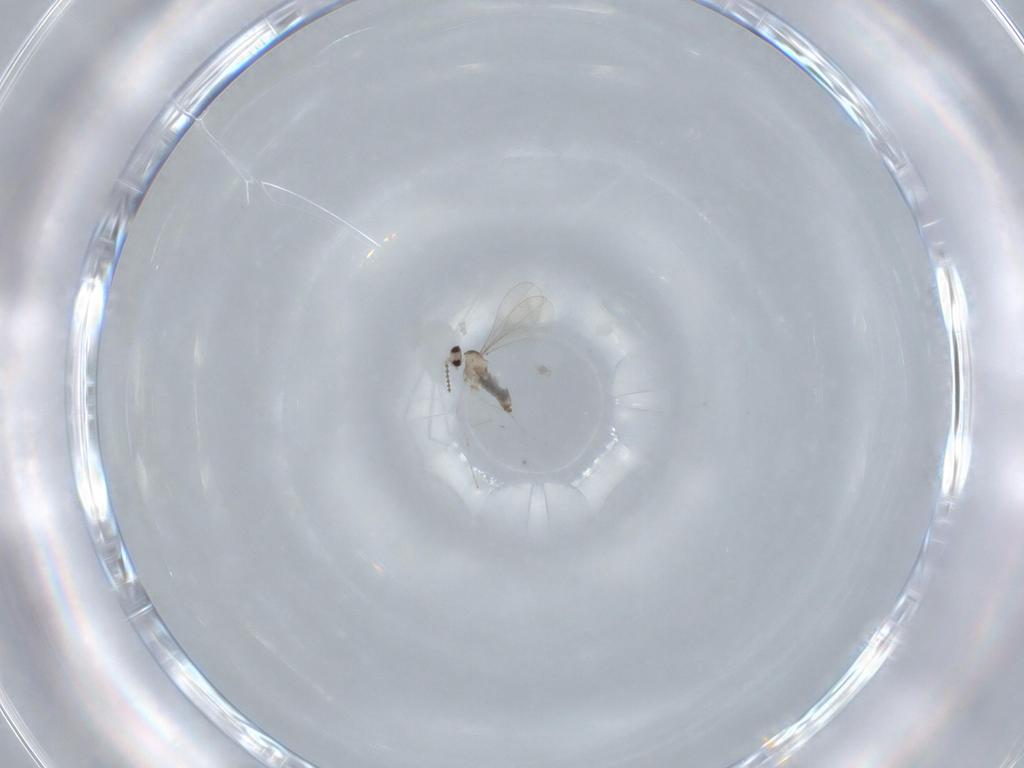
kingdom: Animalia
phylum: Arthropoda
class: Insecta
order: Diptera
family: Cecidomyiidae
